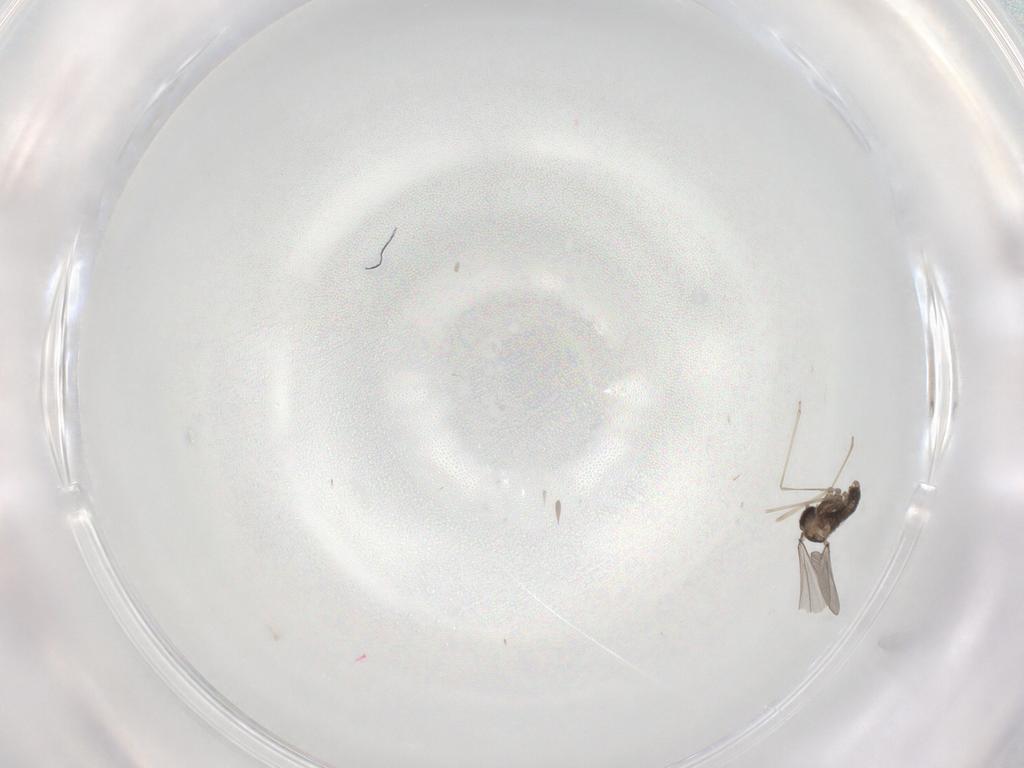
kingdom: Animalia
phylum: Arthropoda
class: Insecta
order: Diptera
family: Cecidomyiidae
